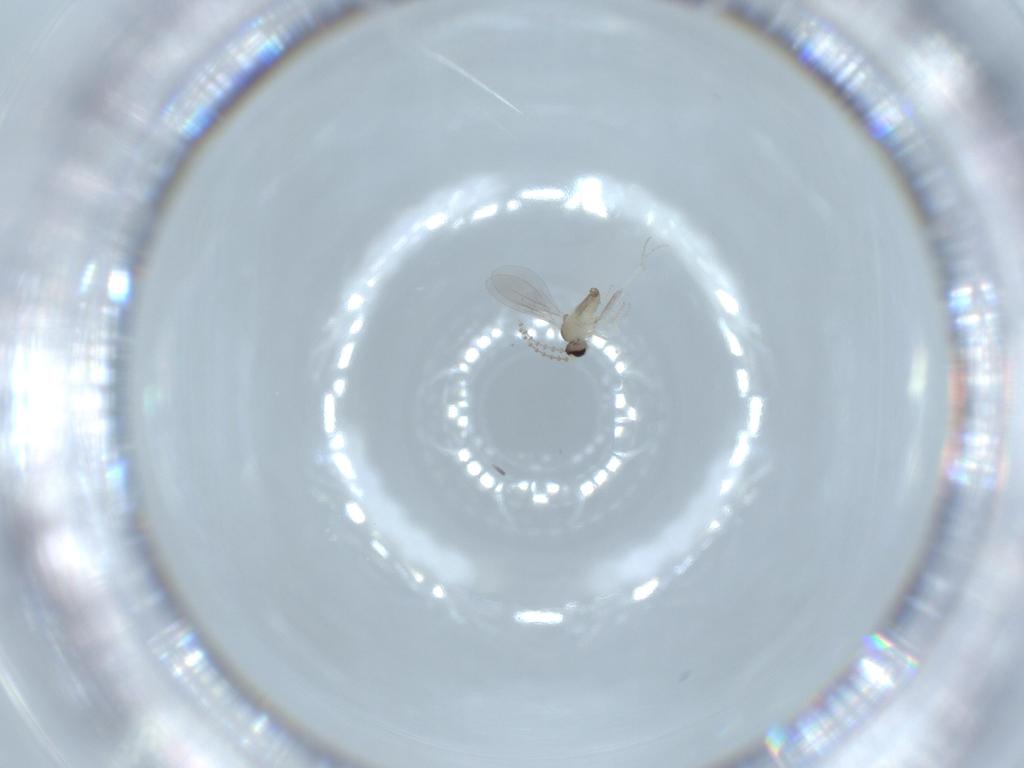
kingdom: Animalia
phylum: Arthropoda
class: Insecta
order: Diptera
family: Cecidomyiidae
